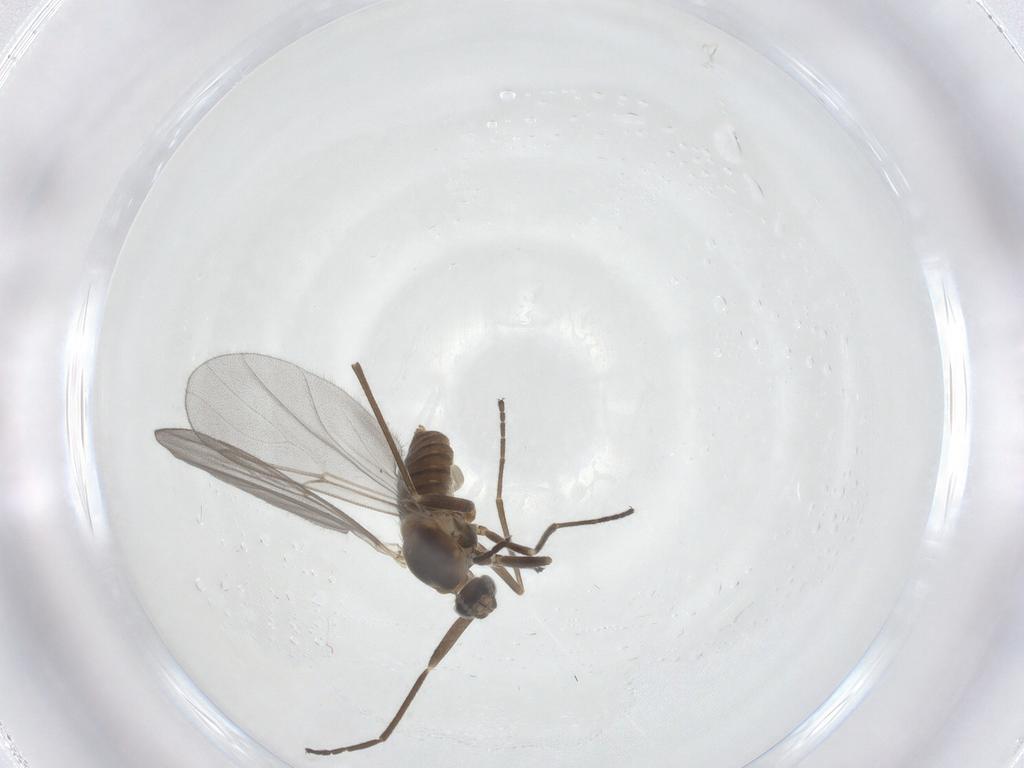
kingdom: Animalia
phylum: Arthropoda
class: Insecta
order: Diptera
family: Cecidomyiidae
